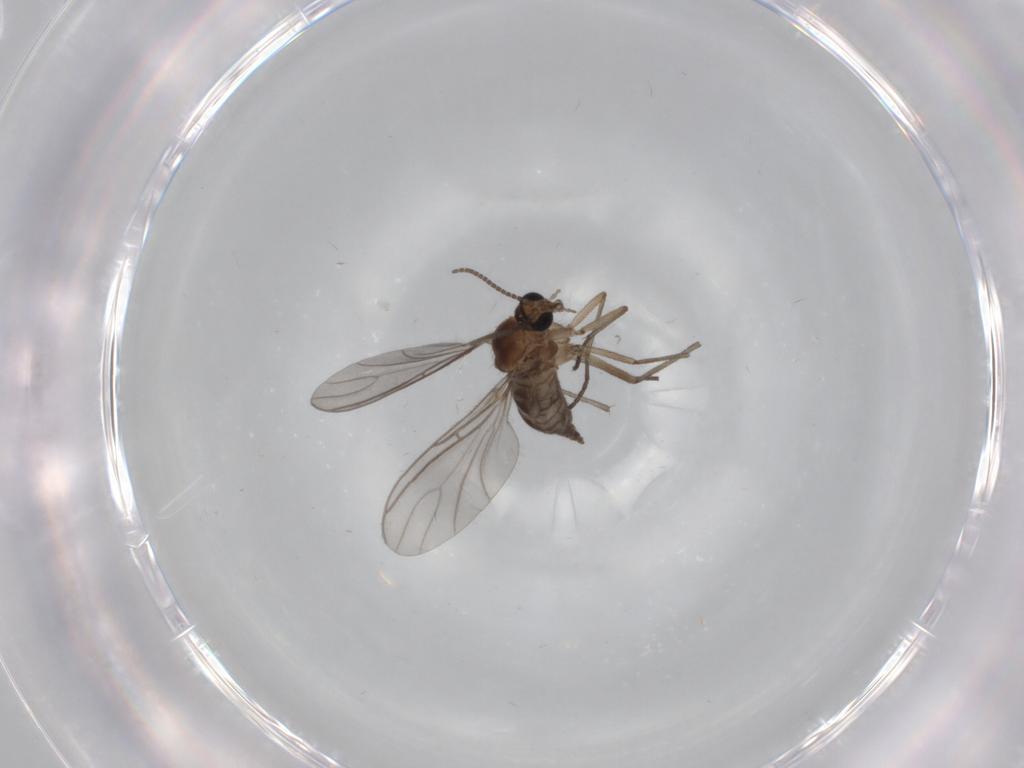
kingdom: Animalia
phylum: Arthropoda
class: Insecta
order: Diptera
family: Sciaridae
